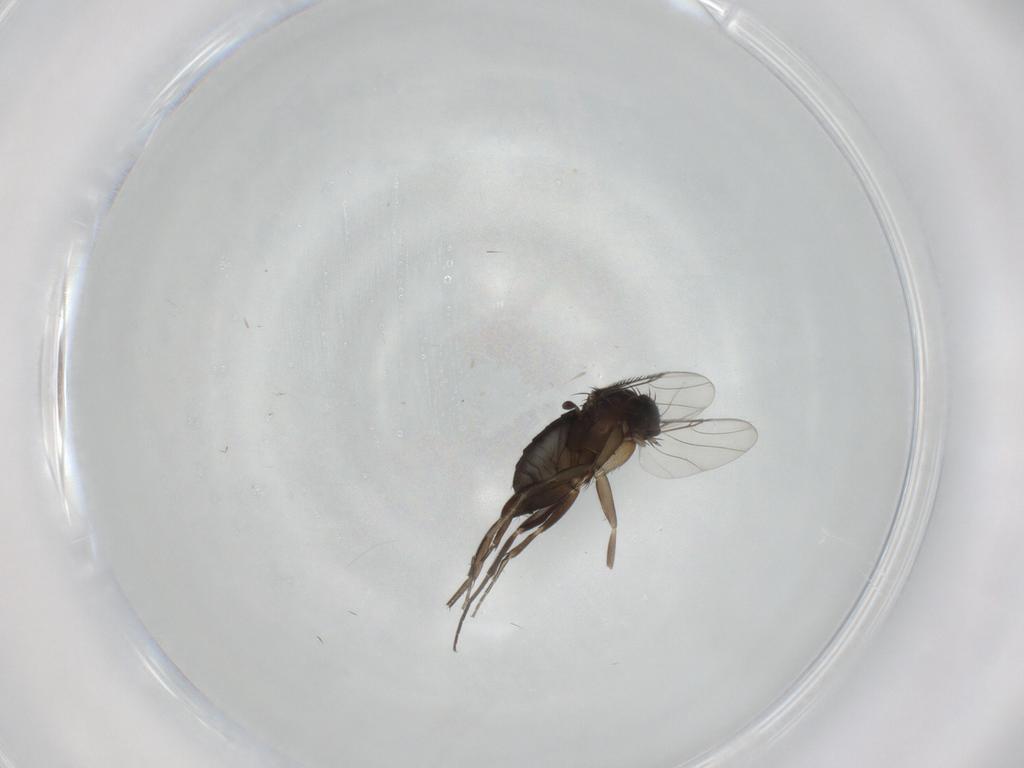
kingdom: Animalia
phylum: Arthropoda
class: Insecta
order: Diptera
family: Phoridae
